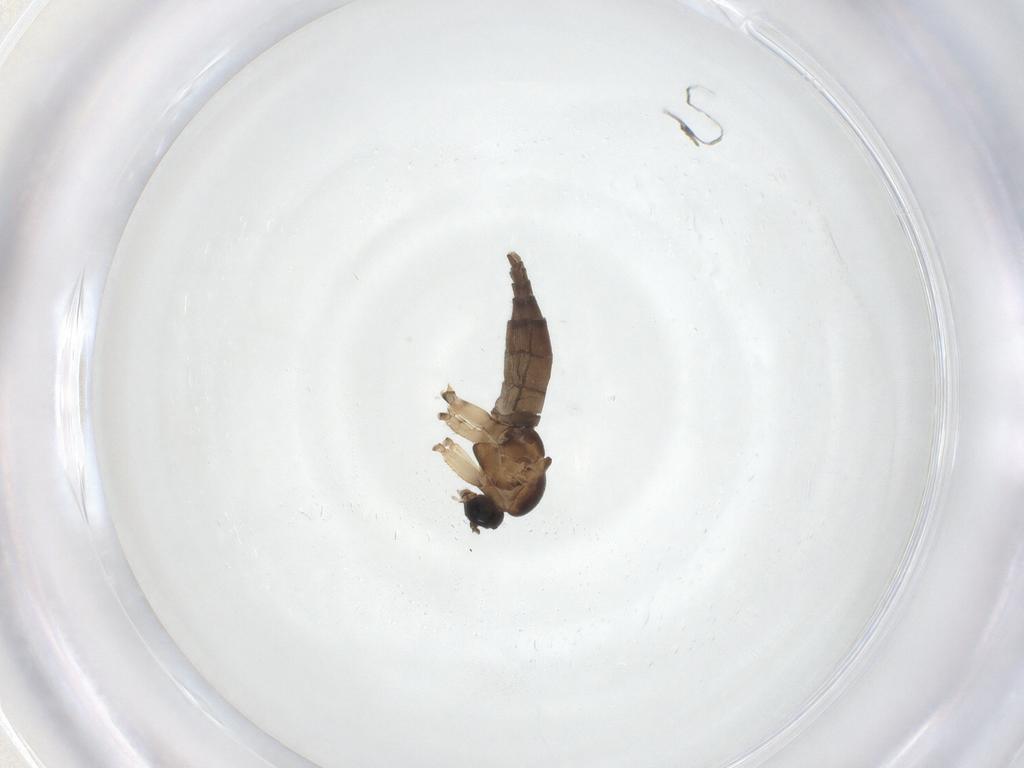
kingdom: Animalia
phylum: Arthropoda
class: Insecta
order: Diptera
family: Sciaridae
